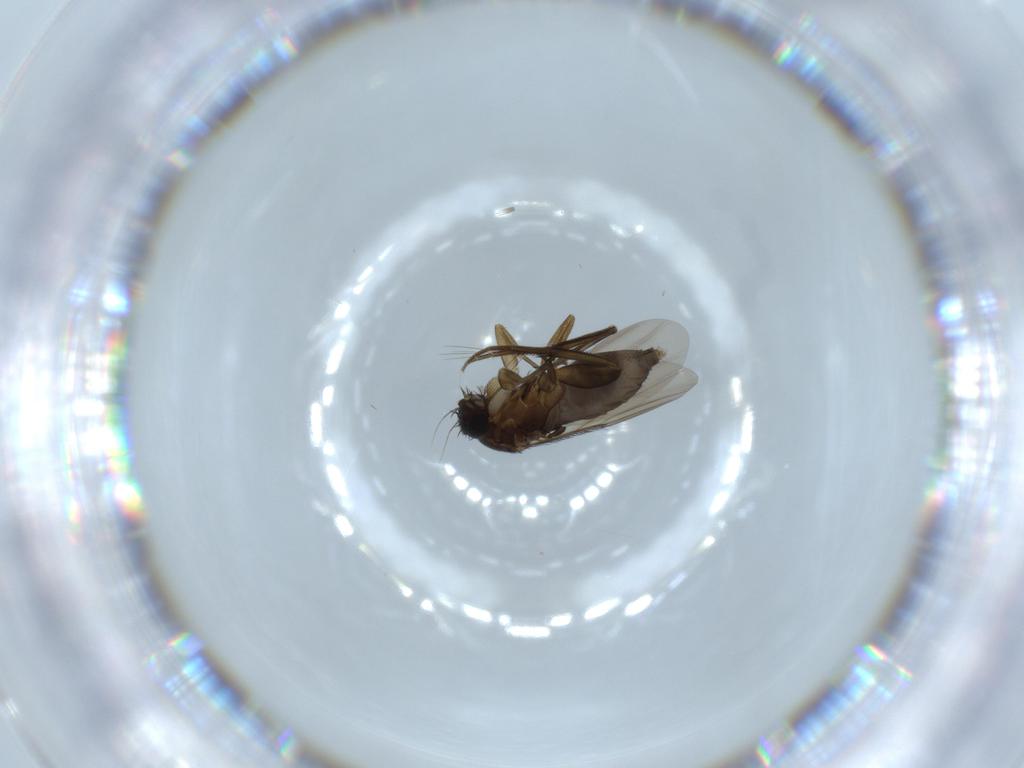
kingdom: Animalia
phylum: Arthropoda
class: Insecta
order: Diptera
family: Phoridae
